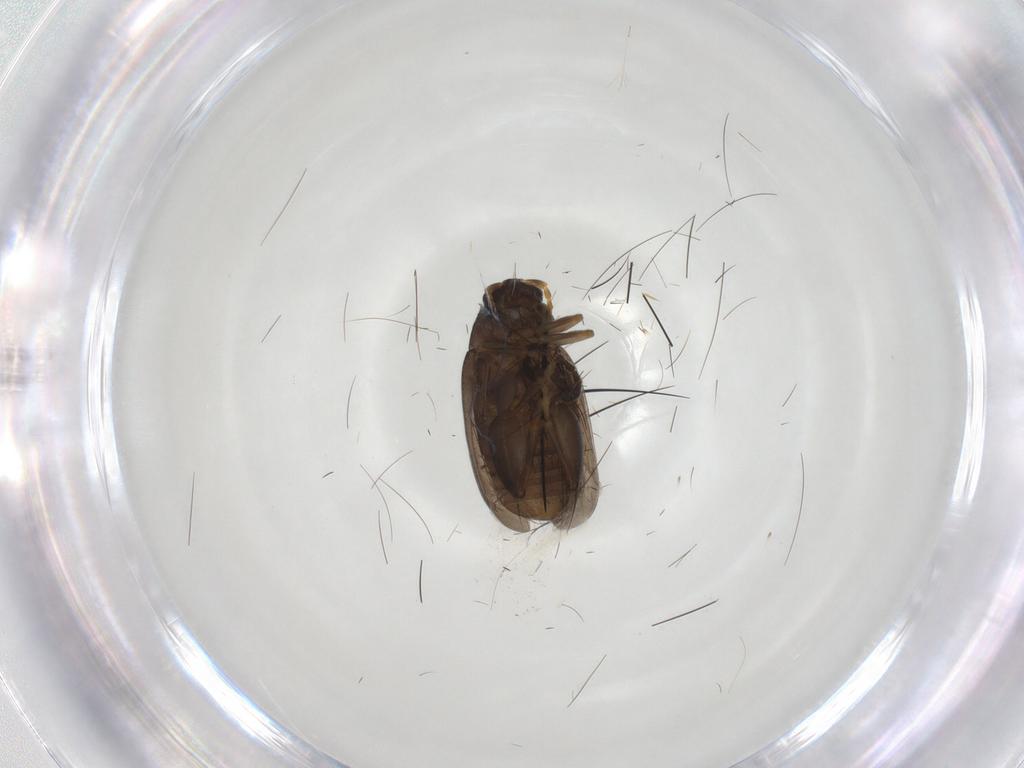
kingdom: Animalia
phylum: Arthropoda
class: Insecta
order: Coleoptera
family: Chrysomelidae
